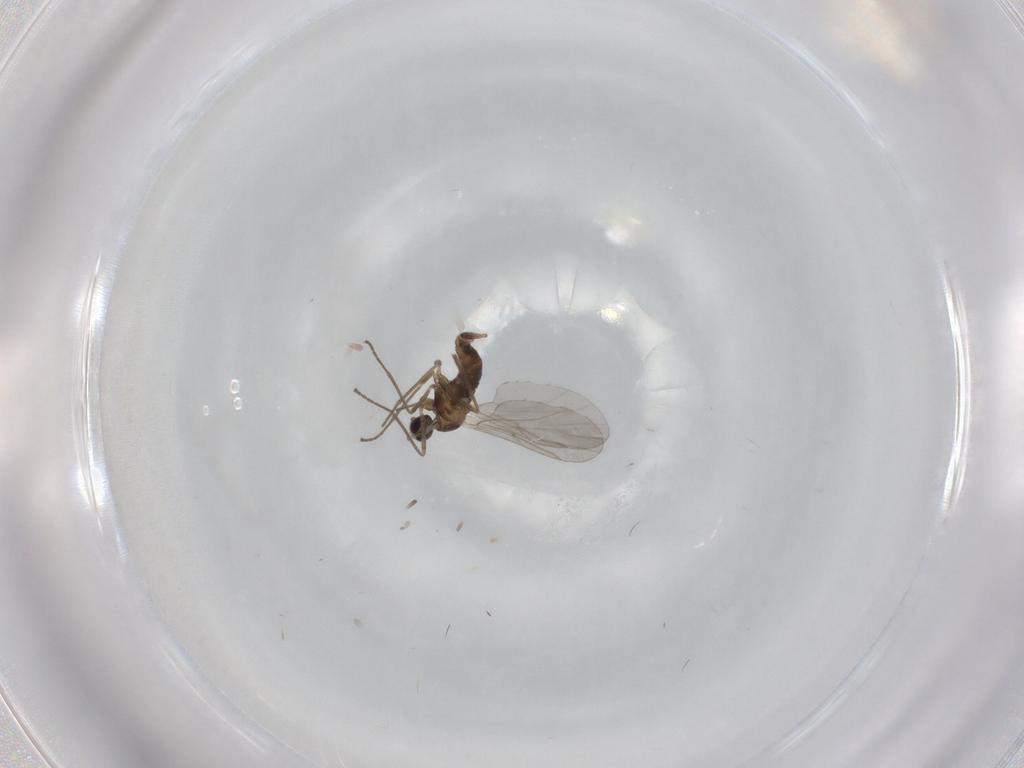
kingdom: Animalia
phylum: Arthropoda
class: Insecta
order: Diptera
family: Cecidomyiidae
